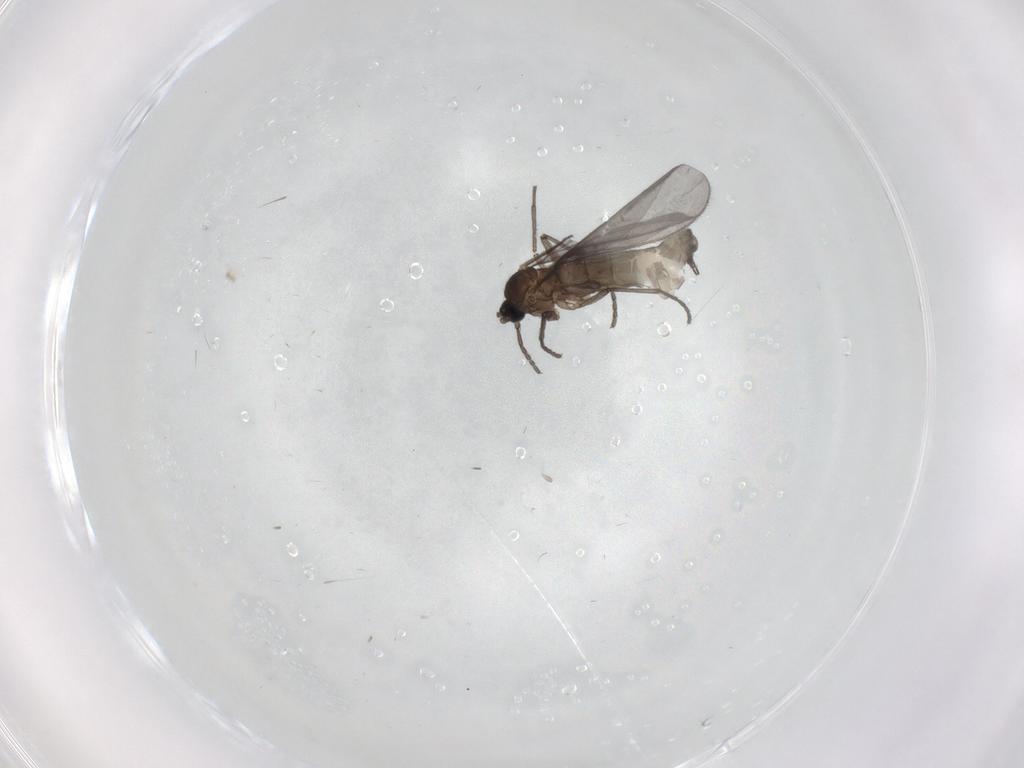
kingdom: Animalia
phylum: Arthropoda
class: Insecta
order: Diptera
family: Sciaridae
